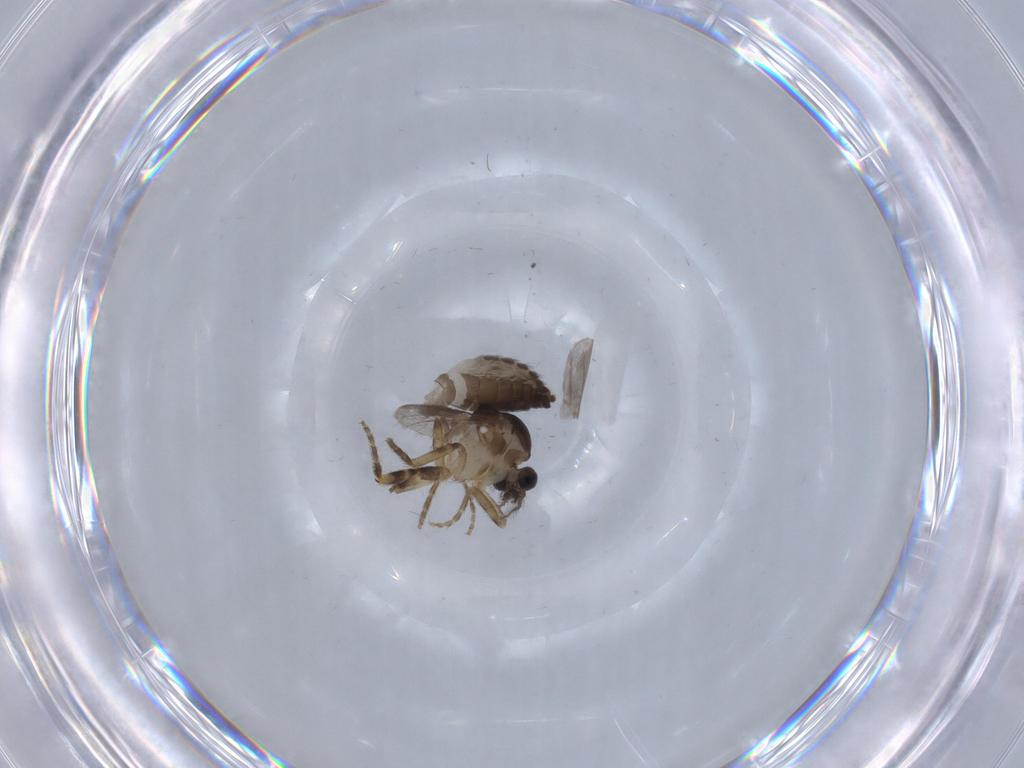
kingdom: Animalia
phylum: Arthropoda
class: Insecta
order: Diptera
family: Ceratopogonidae
